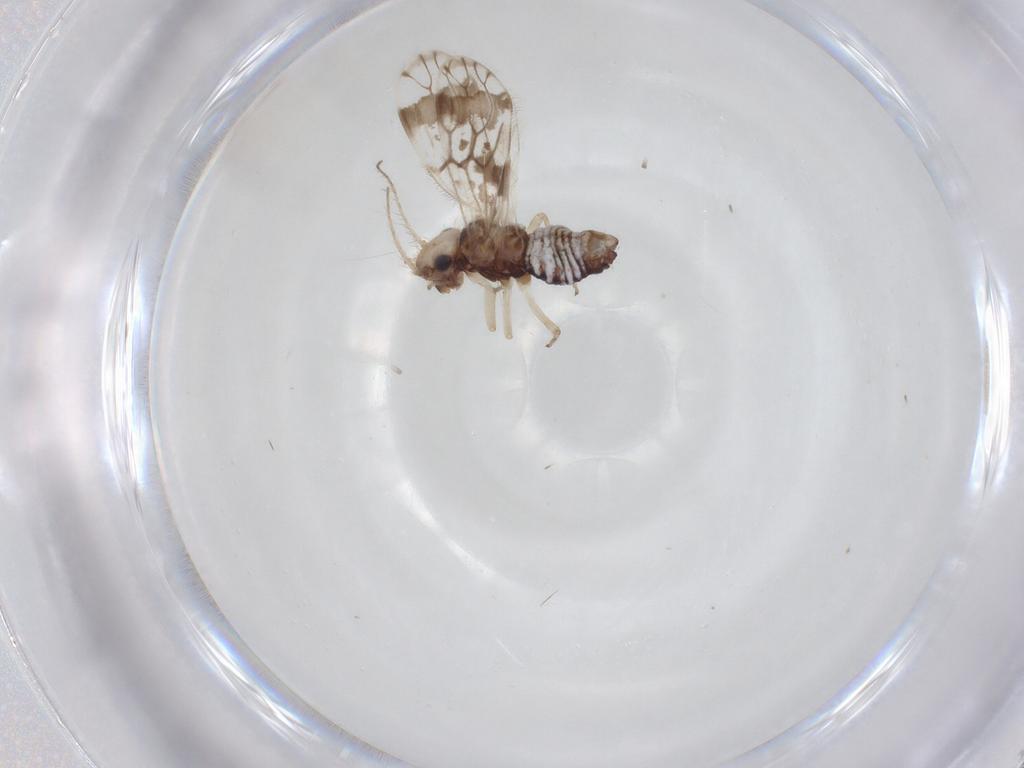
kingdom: Animalia
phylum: Arthropoda
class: Insecta
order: Psocodea
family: Pseudocaeciliidae
